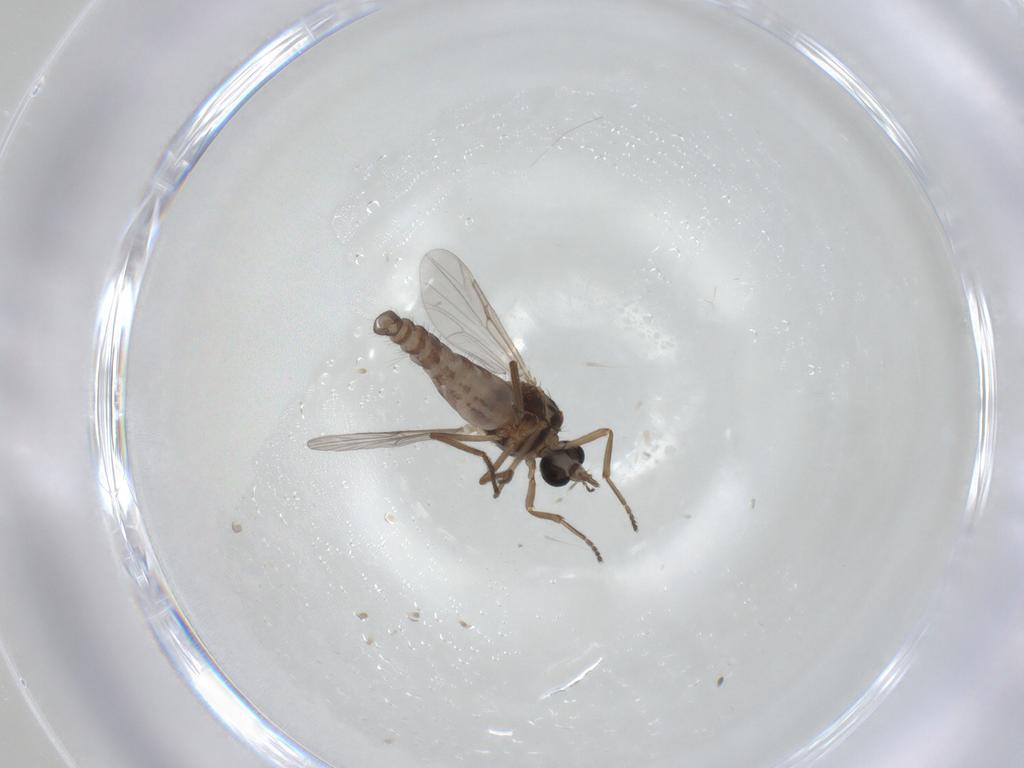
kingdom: Animalia
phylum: Arthropoda
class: Insecta
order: Diptera
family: Ceratopogonidae
